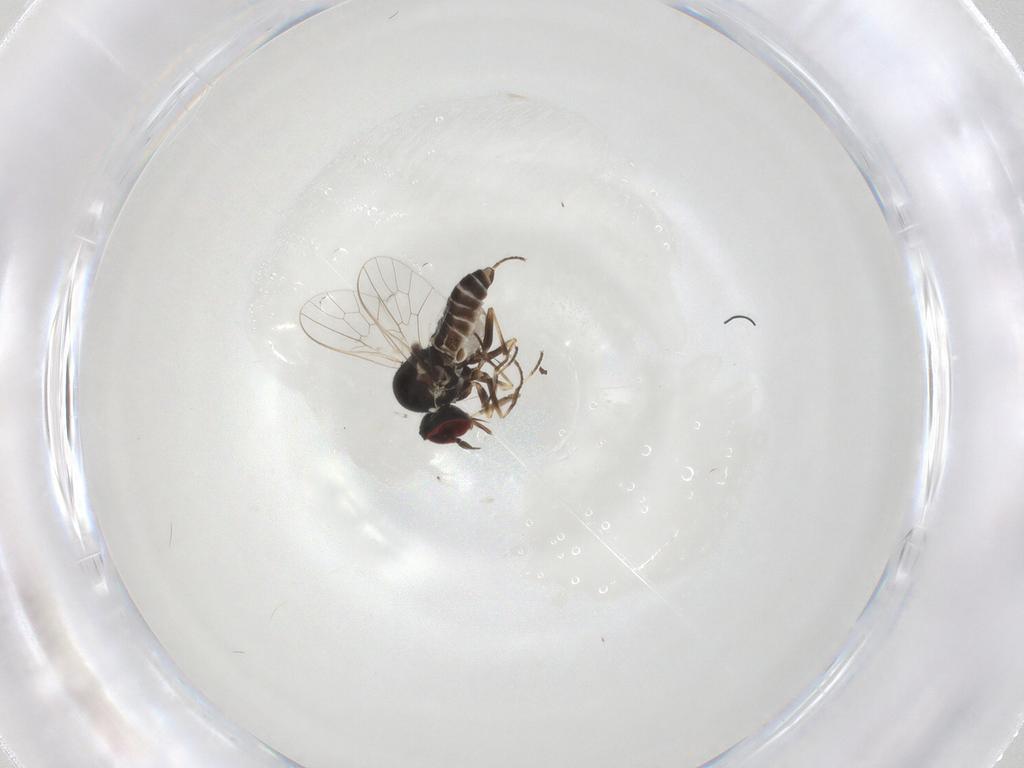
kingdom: Animalia
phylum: Arthropoda
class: Insecta
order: Diptera
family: Bombyliidae
